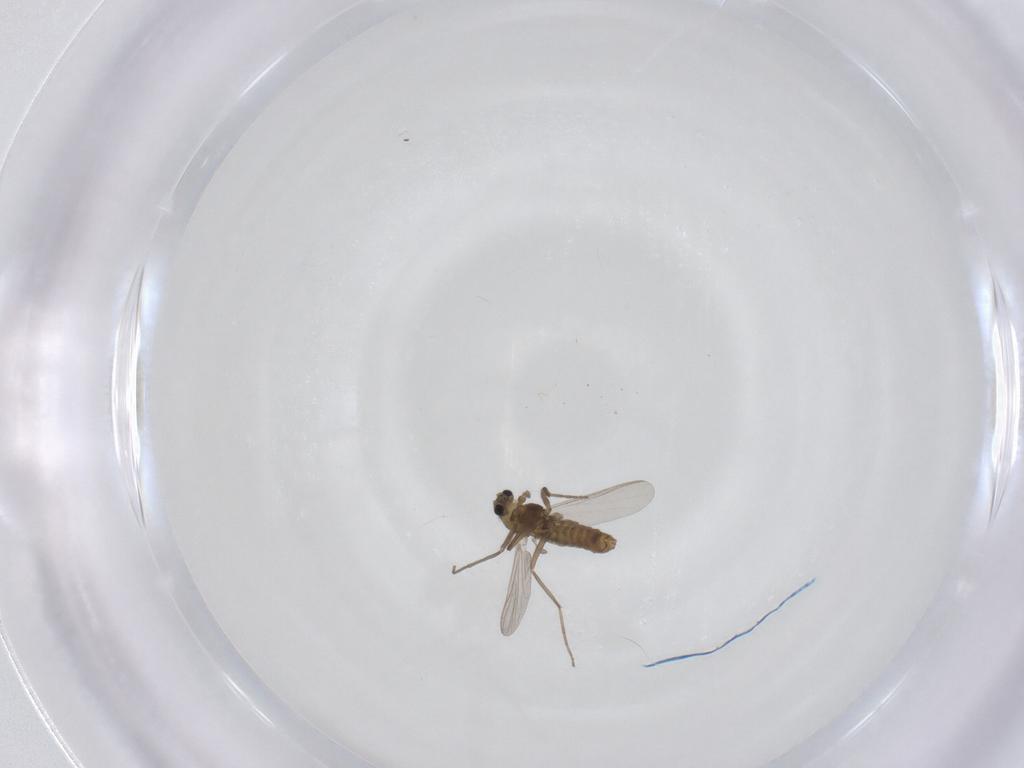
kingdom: Animalia
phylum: Arthropoda
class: Insecta
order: Diptera
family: Chironomidae
